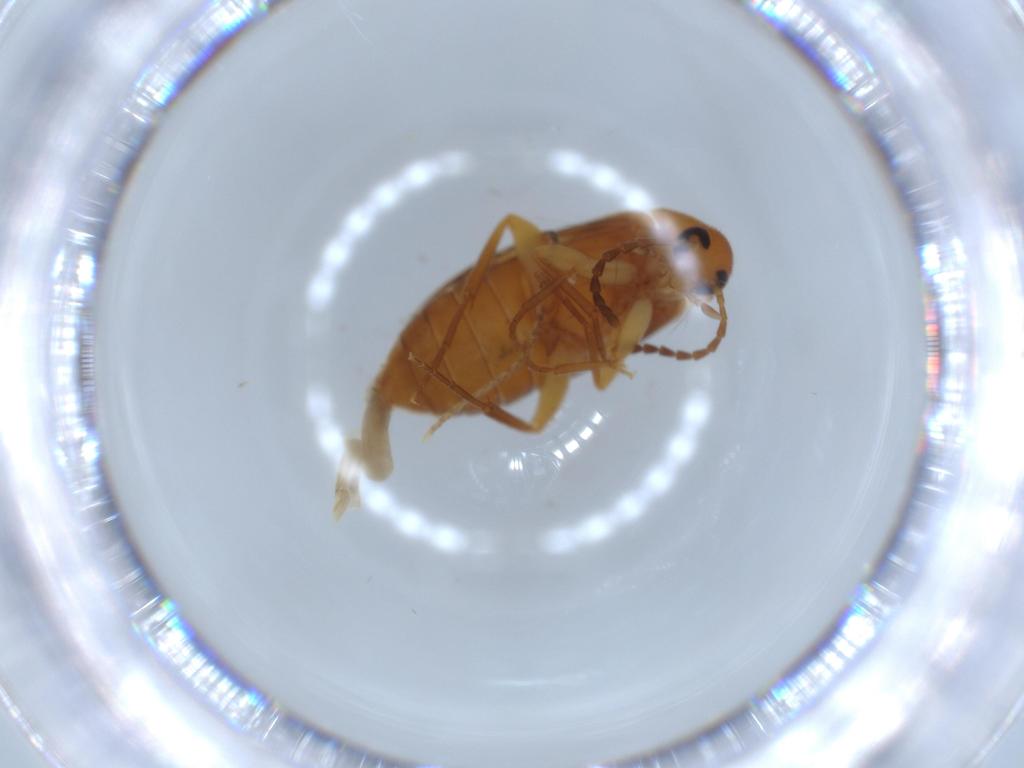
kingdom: Animalia
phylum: Arthropoda
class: Insecta
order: Coleoptera
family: Scraptiidae
